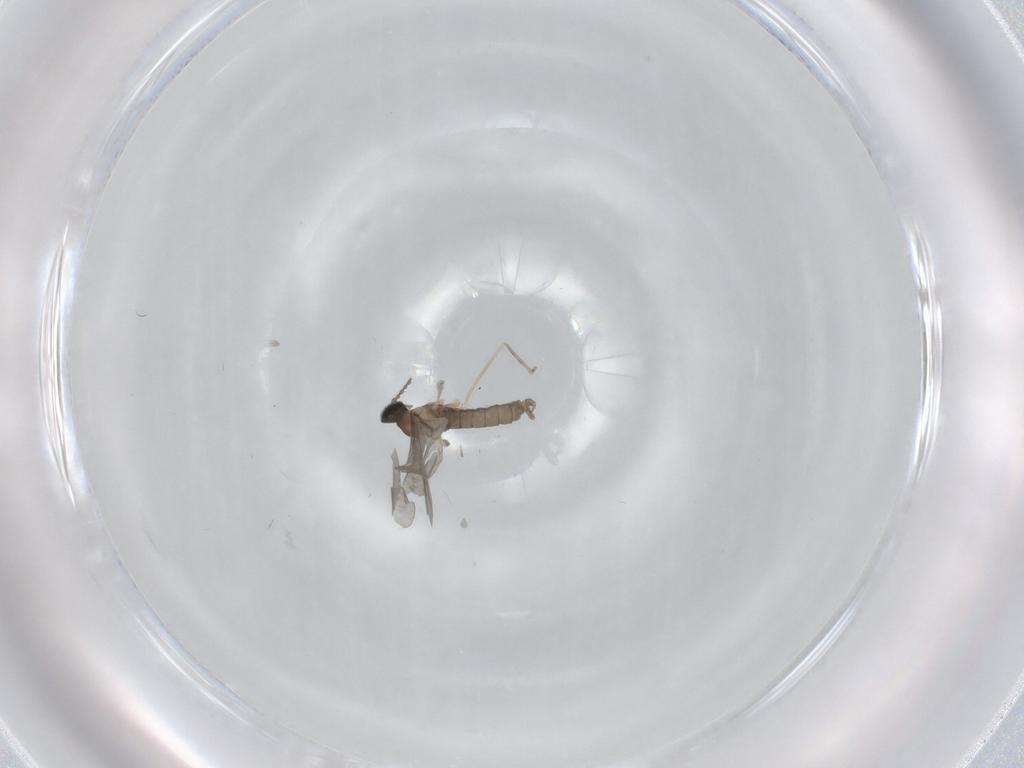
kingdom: Animalia
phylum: Arthropoda
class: Insecta
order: Diptera
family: Cecidomyiidae
